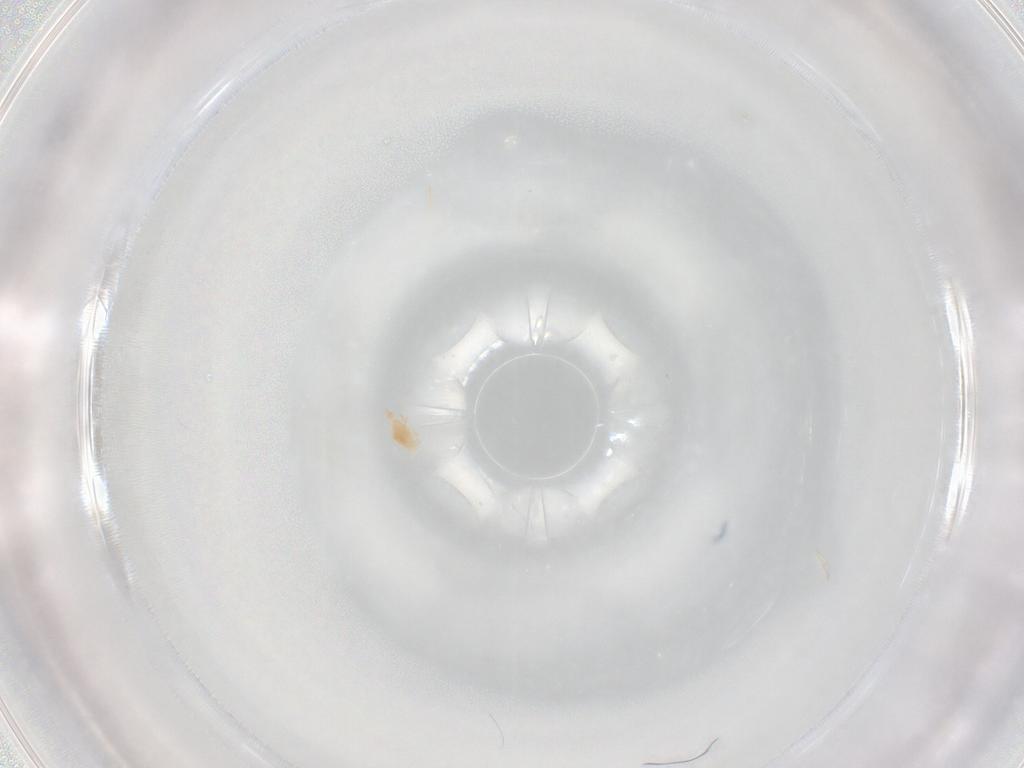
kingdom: Animalia
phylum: Arthropoda
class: Arachnida
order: Trombidiformes
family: Cunaxidae
